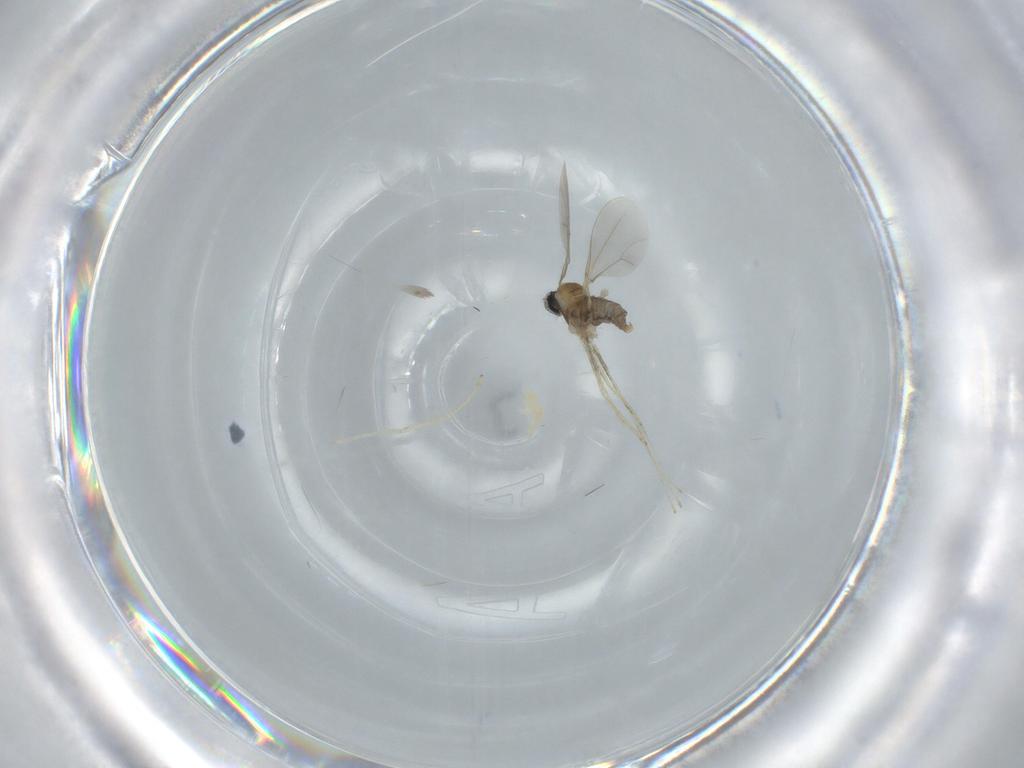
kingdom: Animalia
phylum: Arthropoda
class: Insecta
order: Diptera
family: Cecidomyiidae
